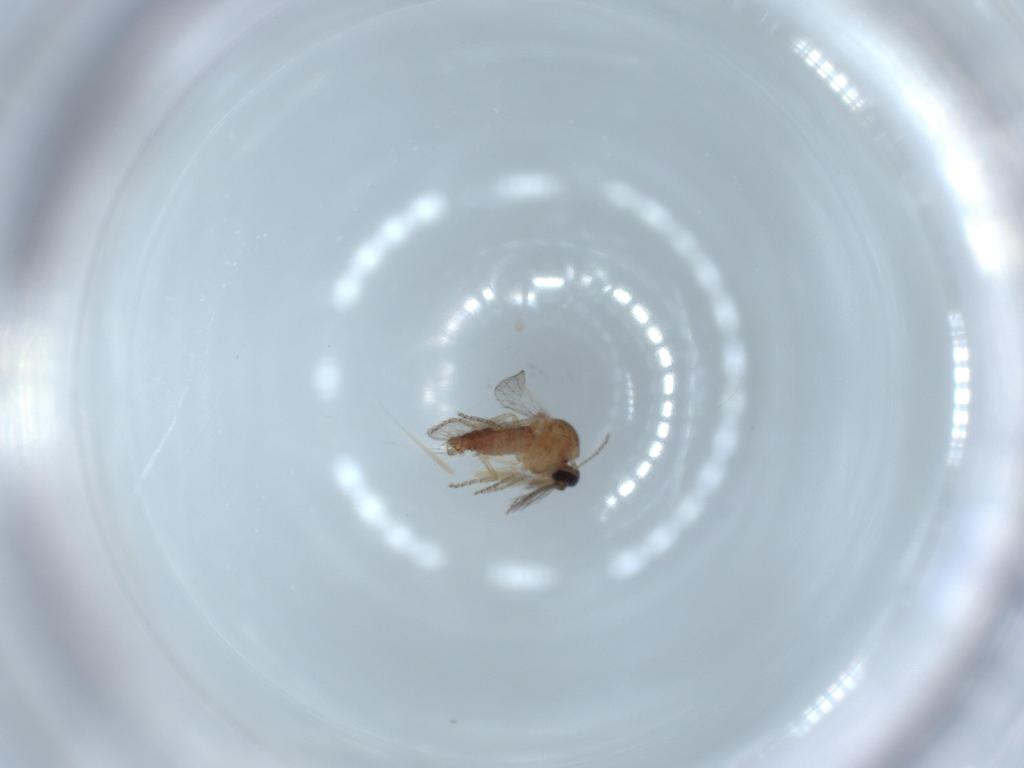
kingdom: Animalia
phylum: Arthropoda
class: Insecta
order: Diptera
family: Ceratopogonidae
